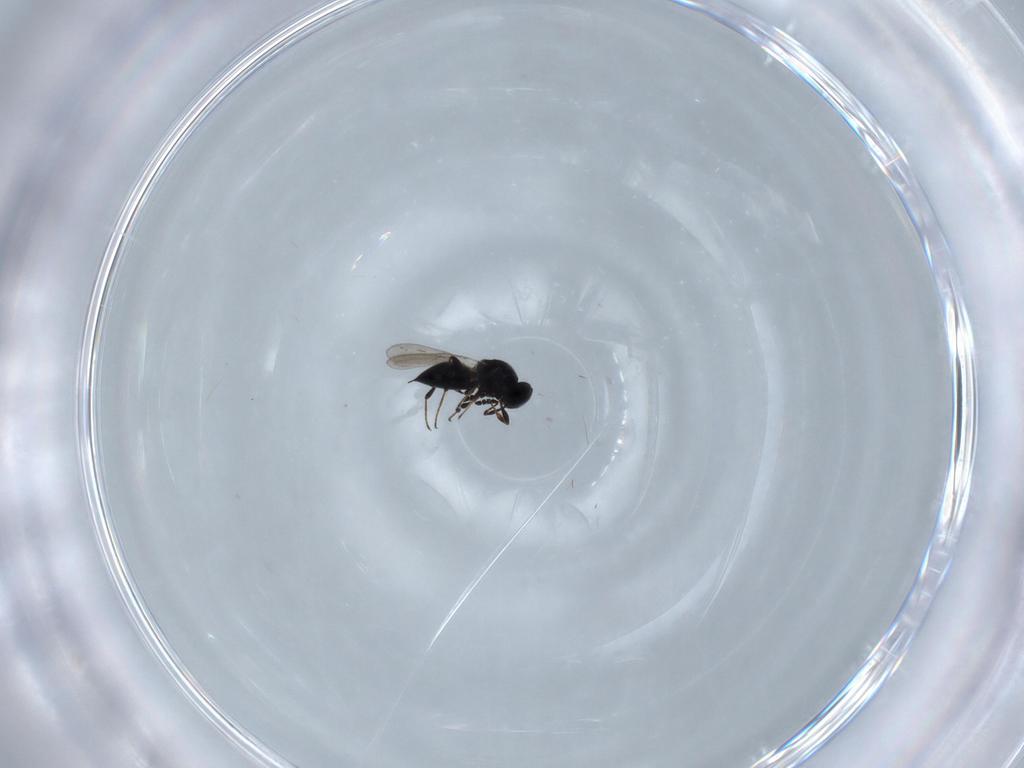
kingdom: Animalia
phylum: Arthropoda
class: Insecta
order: Hymenoptera
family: Platygastridae
